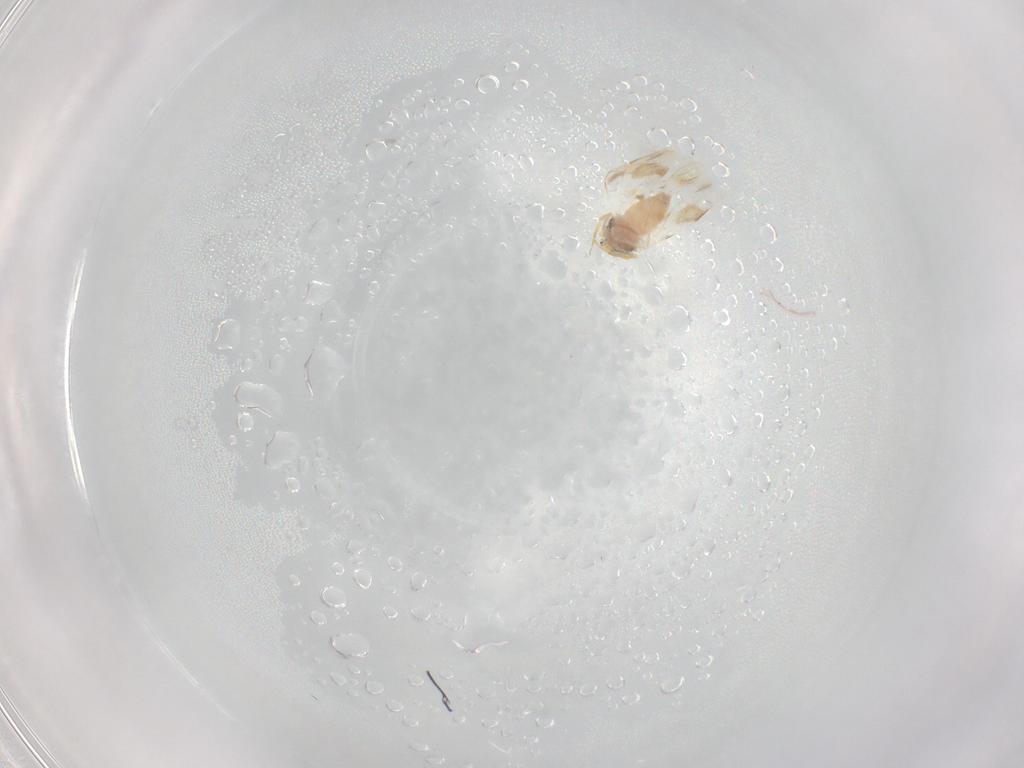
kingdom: Animalia
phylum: Arthropoda
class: Insecta
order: Hemiptera
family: Aleyrodidae
